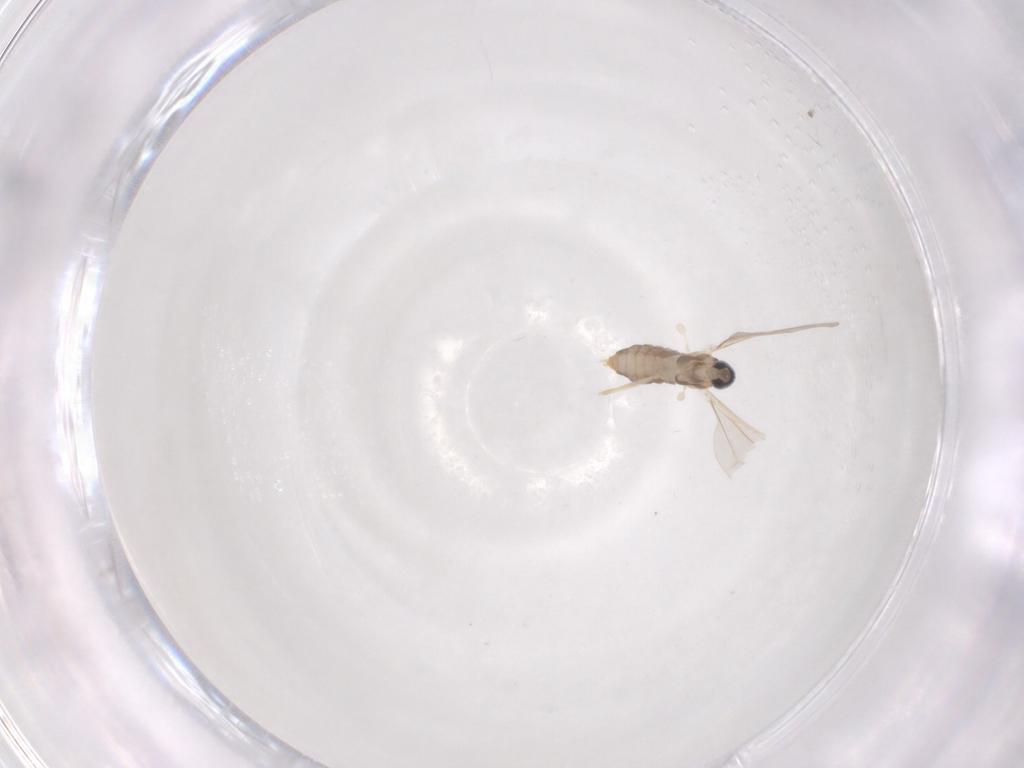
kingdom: Animalia
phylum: Arthropoda
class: Insecta
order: Diptera
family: Cecidomyiidae
